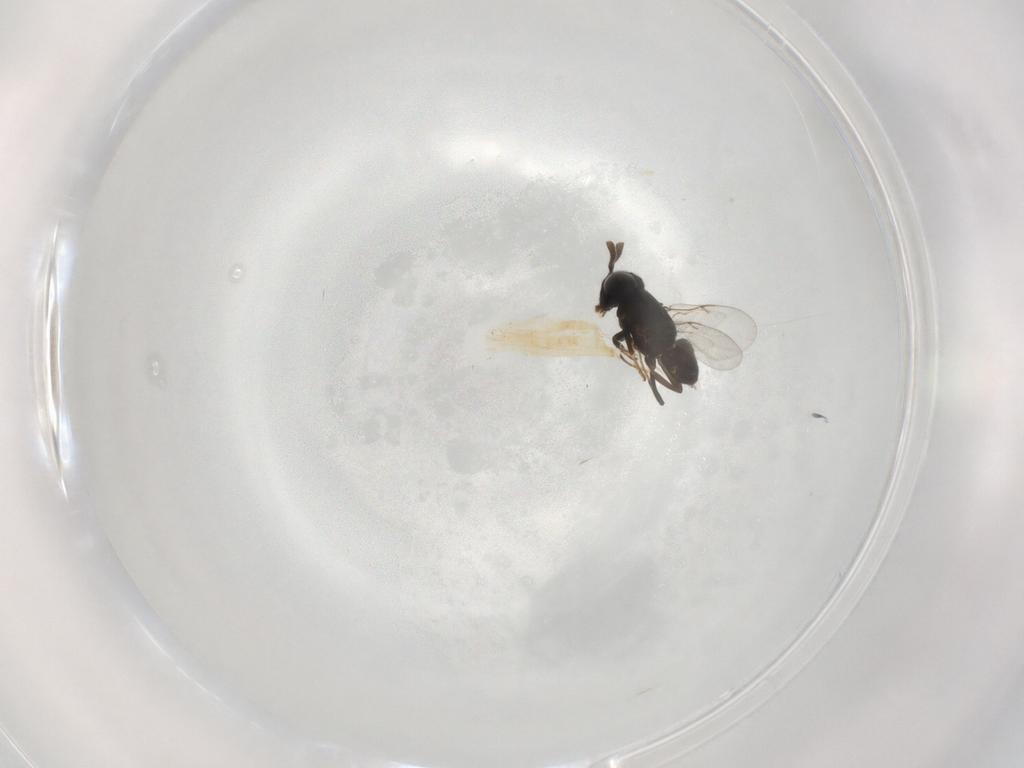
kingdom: Animalia
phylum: Arthropoda
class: Insecta
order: Hymenoptera
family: Encyrtidae
